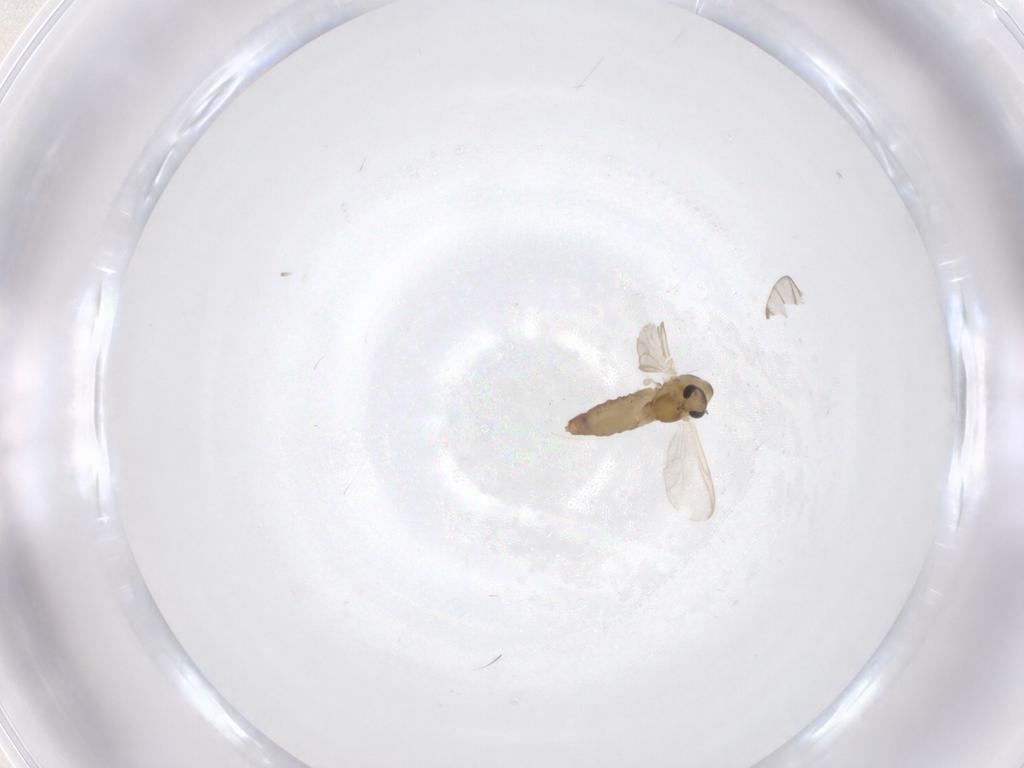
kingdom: Animalia
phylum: Arthropoda
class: Insecta
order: Diptera
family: Chironomidae
